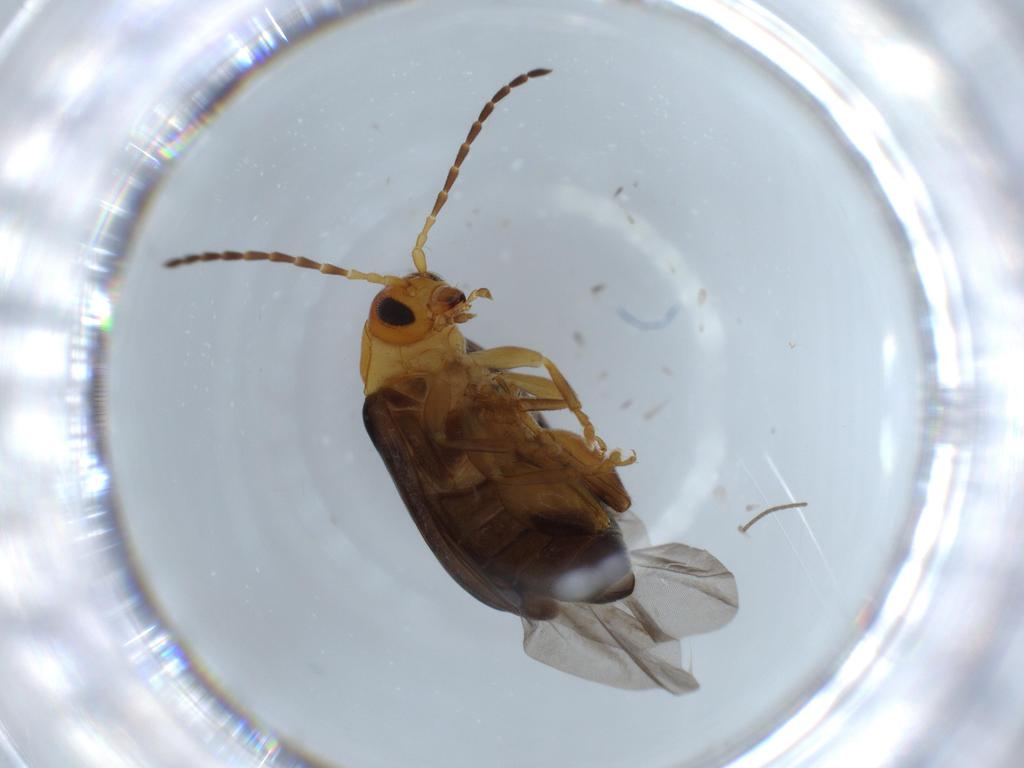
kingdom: Animalia
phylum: Arthropoda
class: Insecta
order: Coleoptera
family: Chrysomelidae
